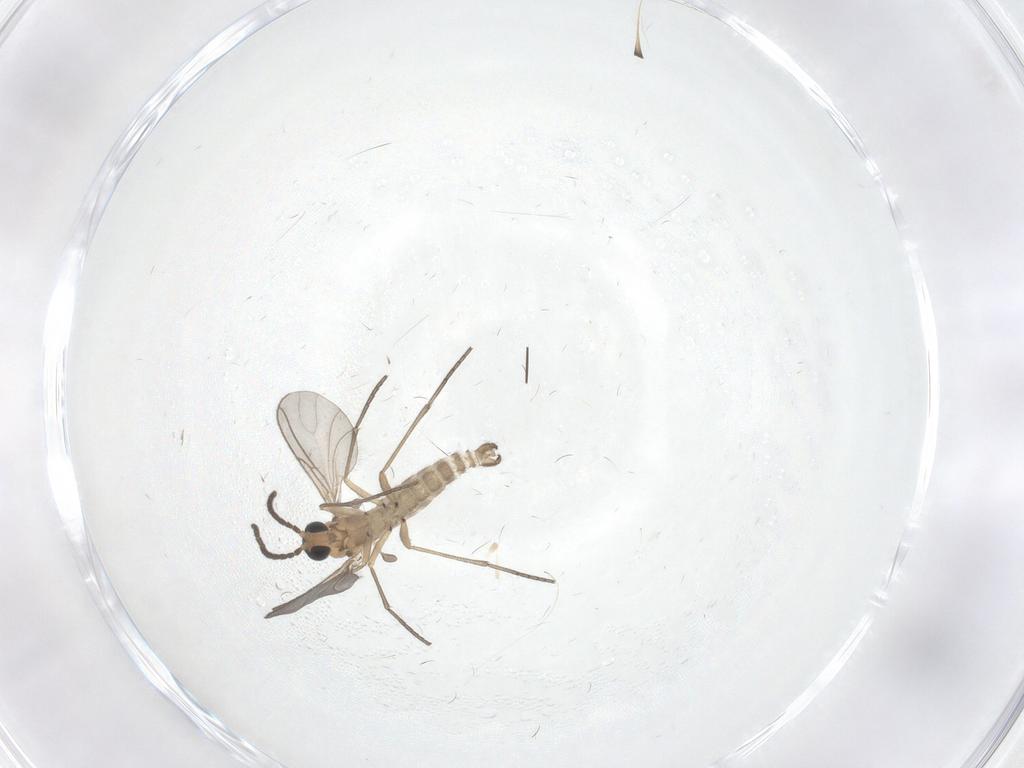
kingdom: Animalia
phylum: Arthropoda
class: Insecta
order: Diptera
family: Sciaridae
